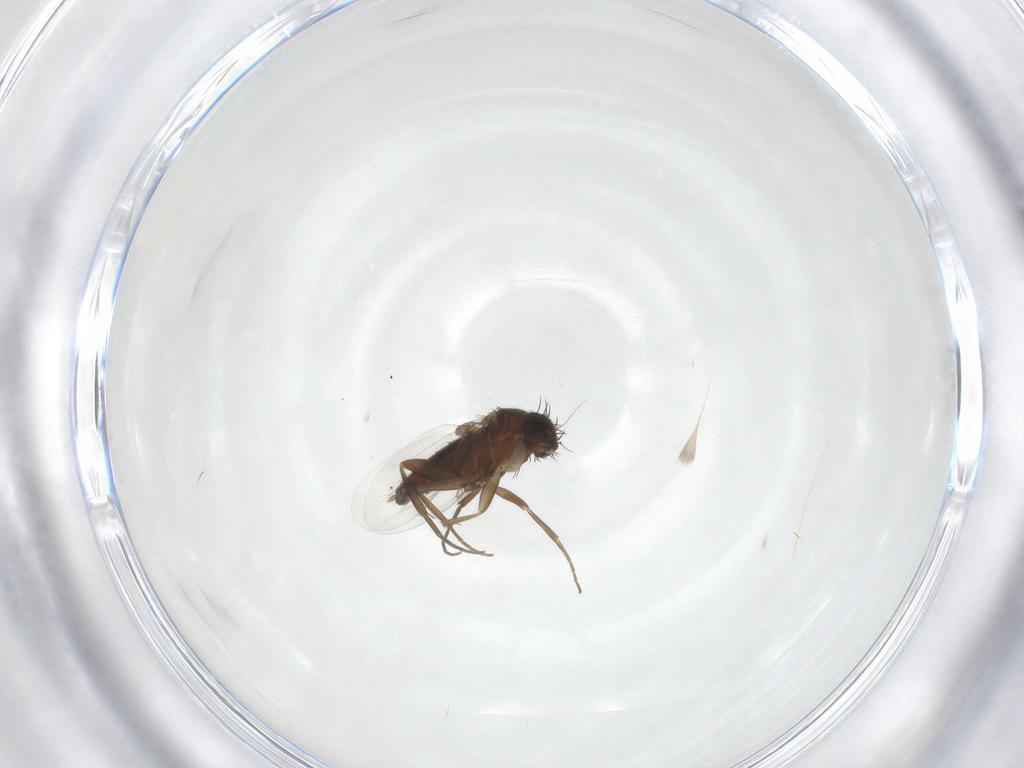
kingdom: Animalia
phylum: Arthropoda
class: Insecta
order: Diptera
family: Phoridae
